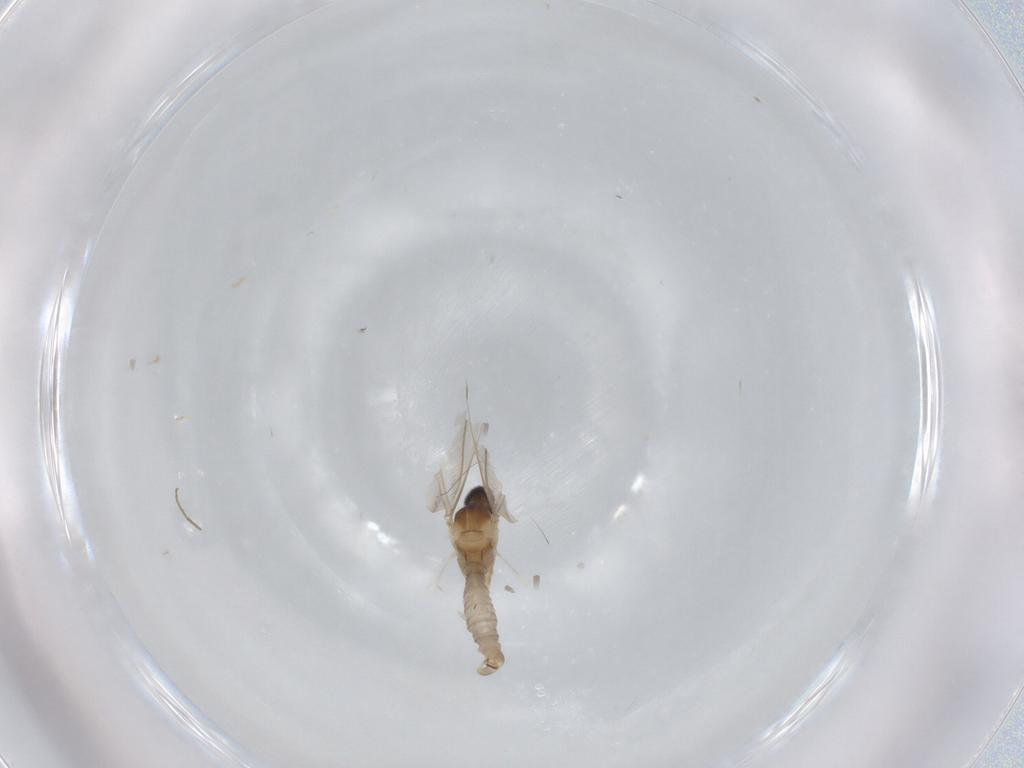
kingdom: Animalia
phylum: Arthropoda
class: Insecta
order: Diptera
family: Cecidomyiidae
